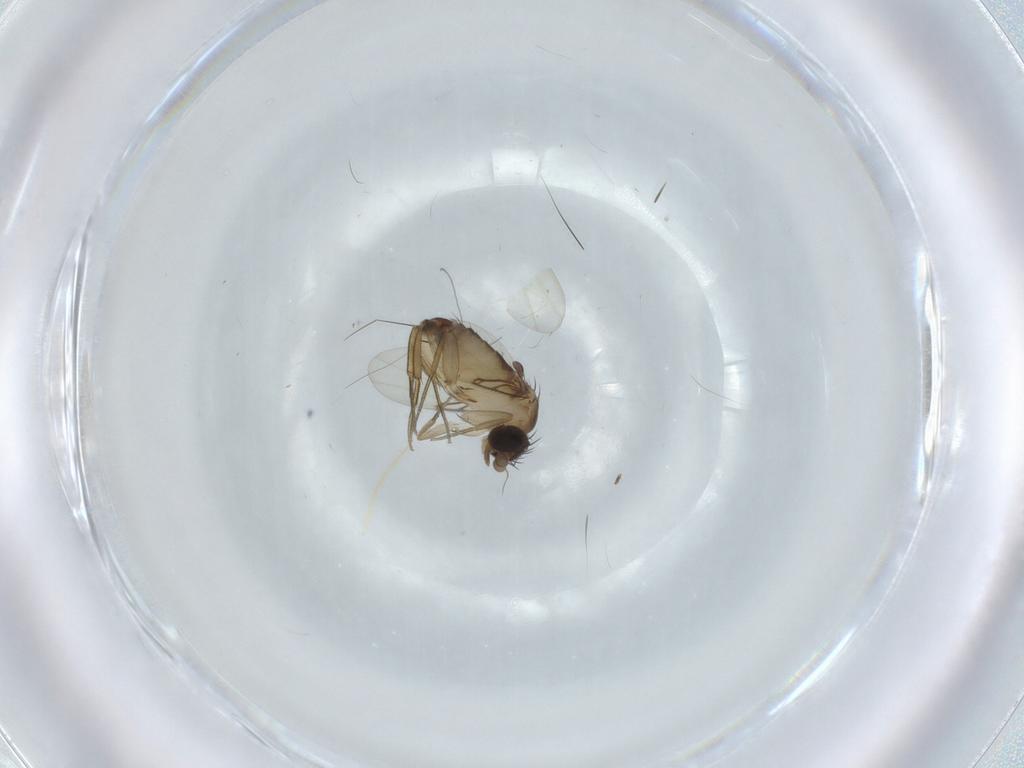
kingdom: Animalia
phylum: Arthropoda
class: Insecta
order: Diptera
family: Phoridae
